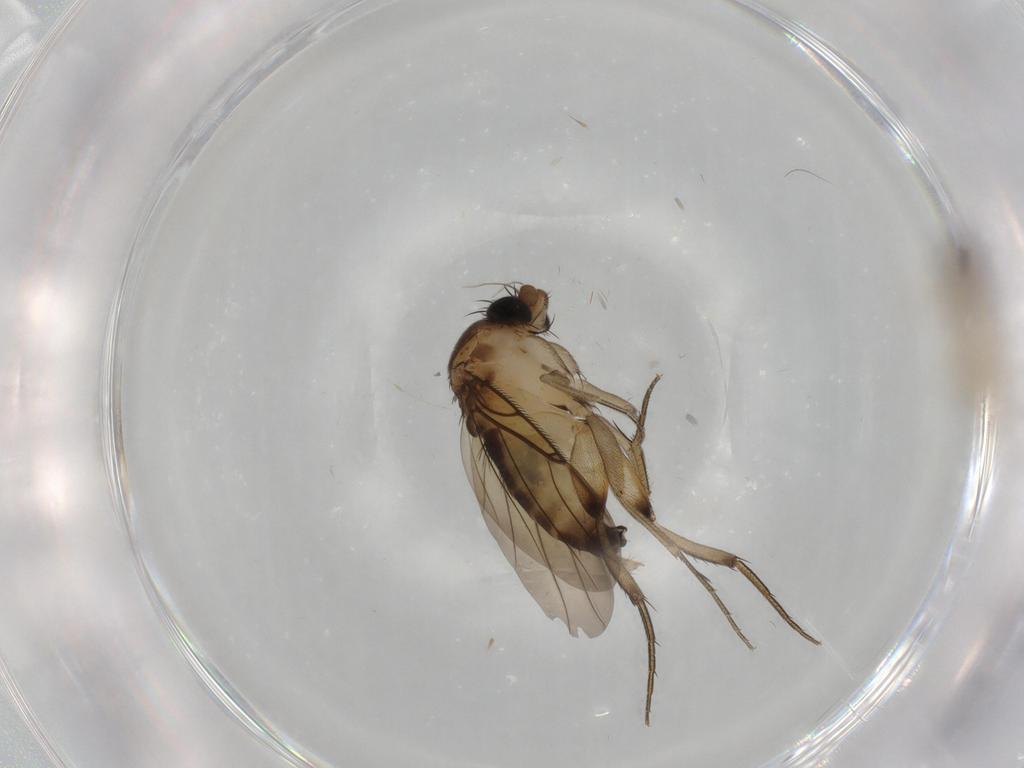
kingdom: Animalia
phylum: Arthropoda
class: Insecta
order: Diptera
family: Cecidomyiidae
